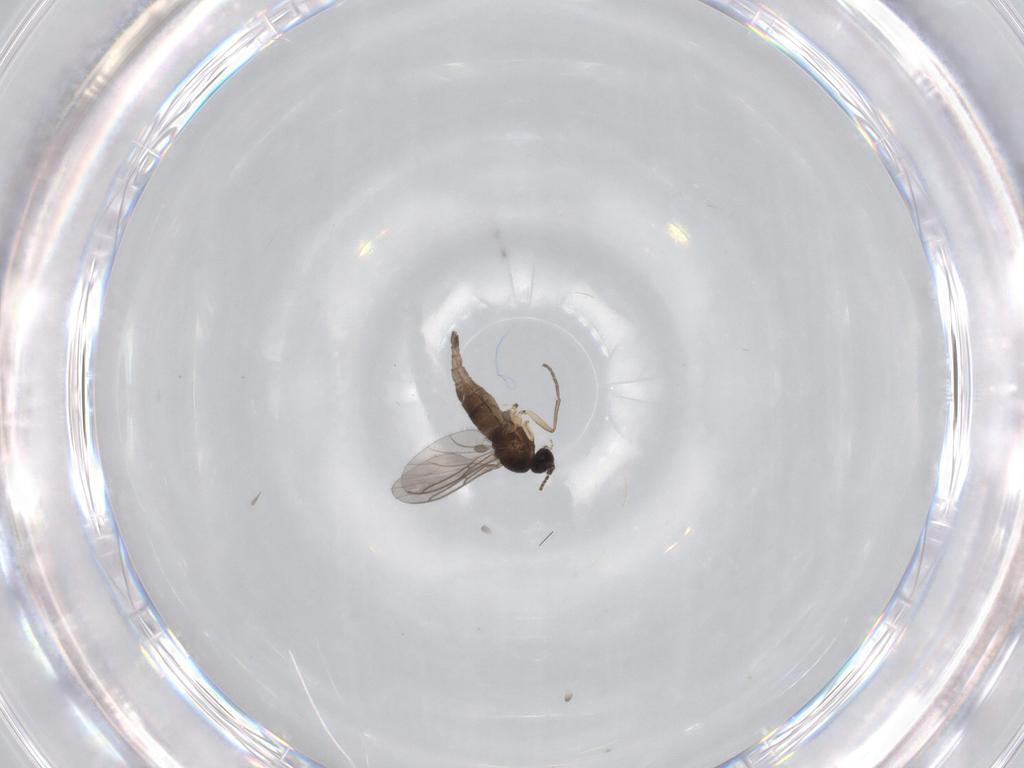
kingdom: Animalia
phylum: Arthropoda
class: Insecta
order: Diptera
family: Sciaridae
